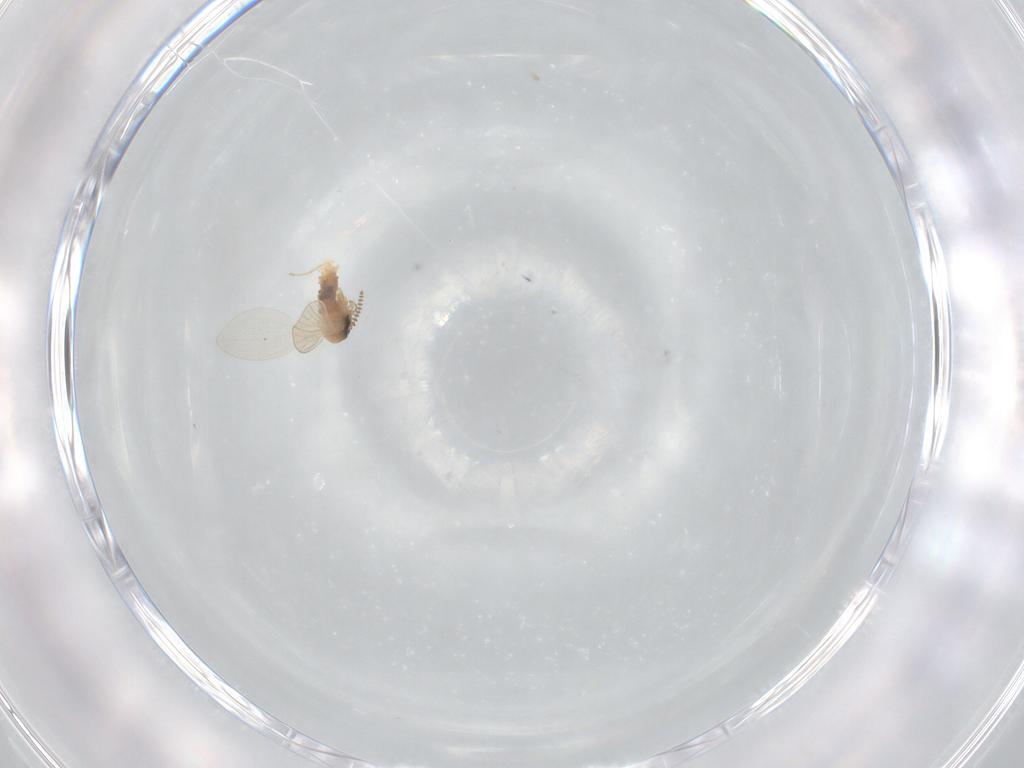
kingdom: Animalia
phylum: Arthropoda
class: Insecta
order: Diptera
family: Psychodidae
